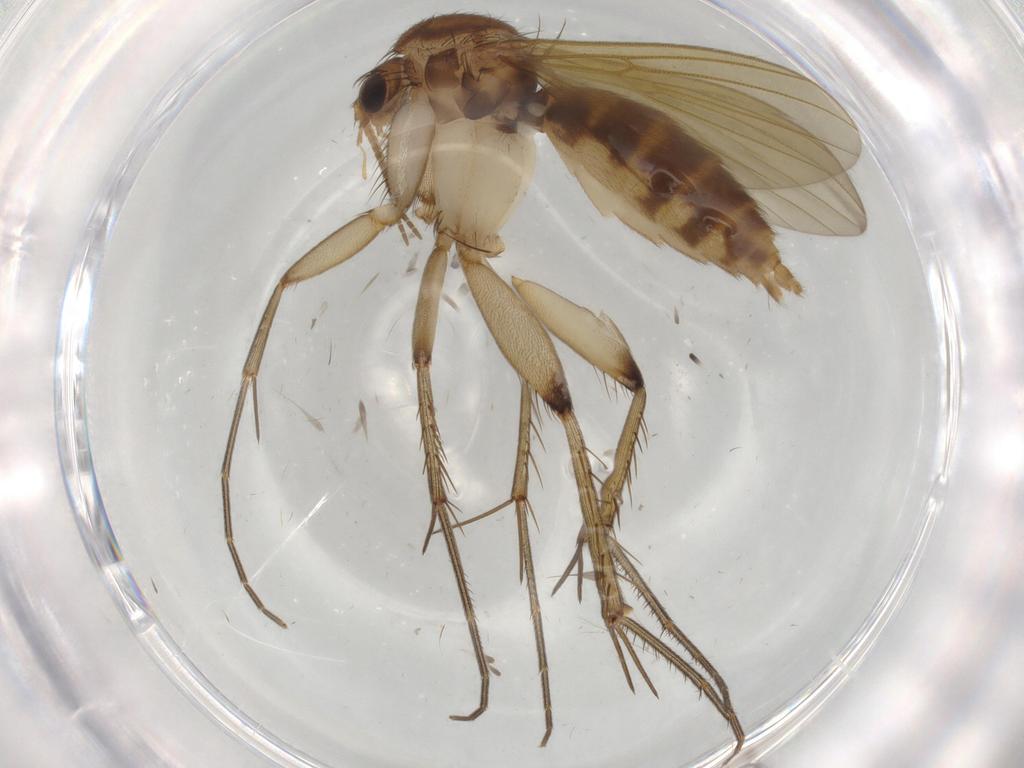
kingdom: Animalia
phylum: Arthropoda
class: Insecta
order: Diptera
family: Mycetophilidae
